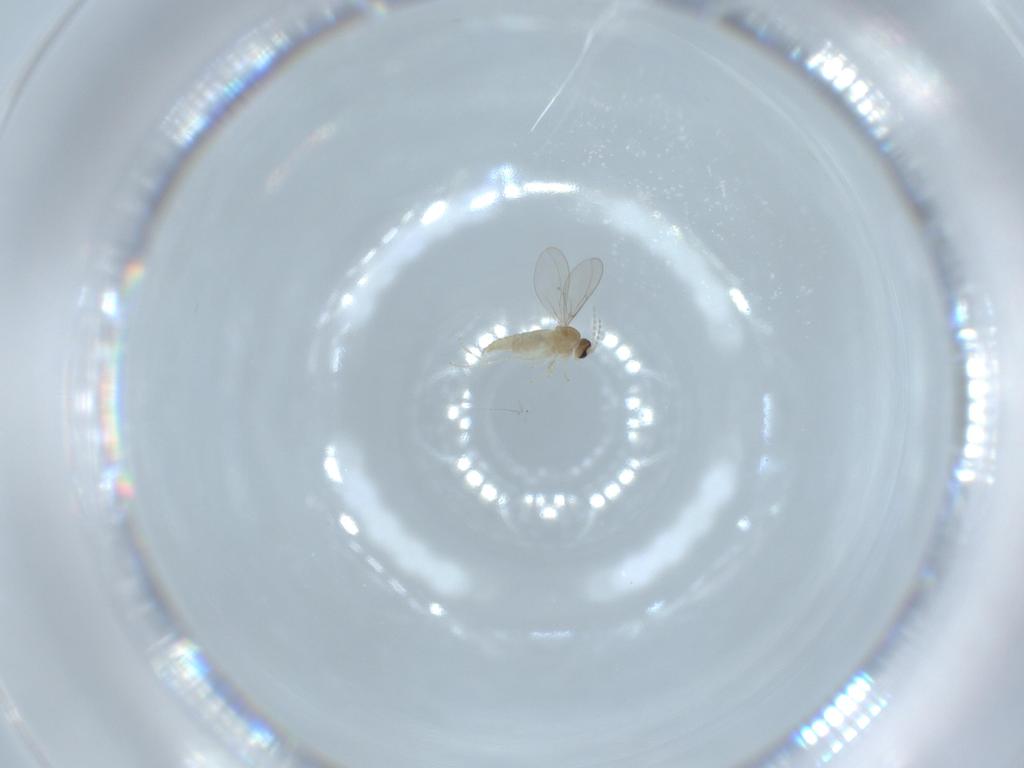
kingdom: Animalia
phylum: Arthropoda
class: Insecta
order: Diptera
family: Cecidomyiidae
